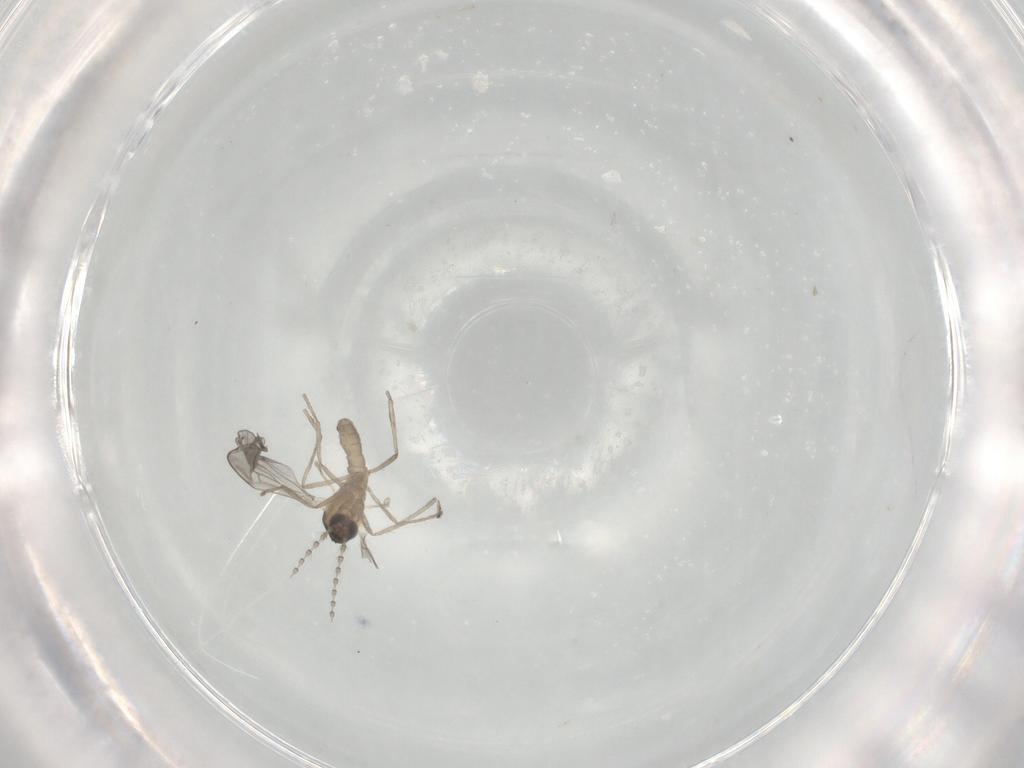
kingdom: Animalia
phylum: Arthropoda
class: Insecta
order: Diptera
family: Cecidomyiidae
